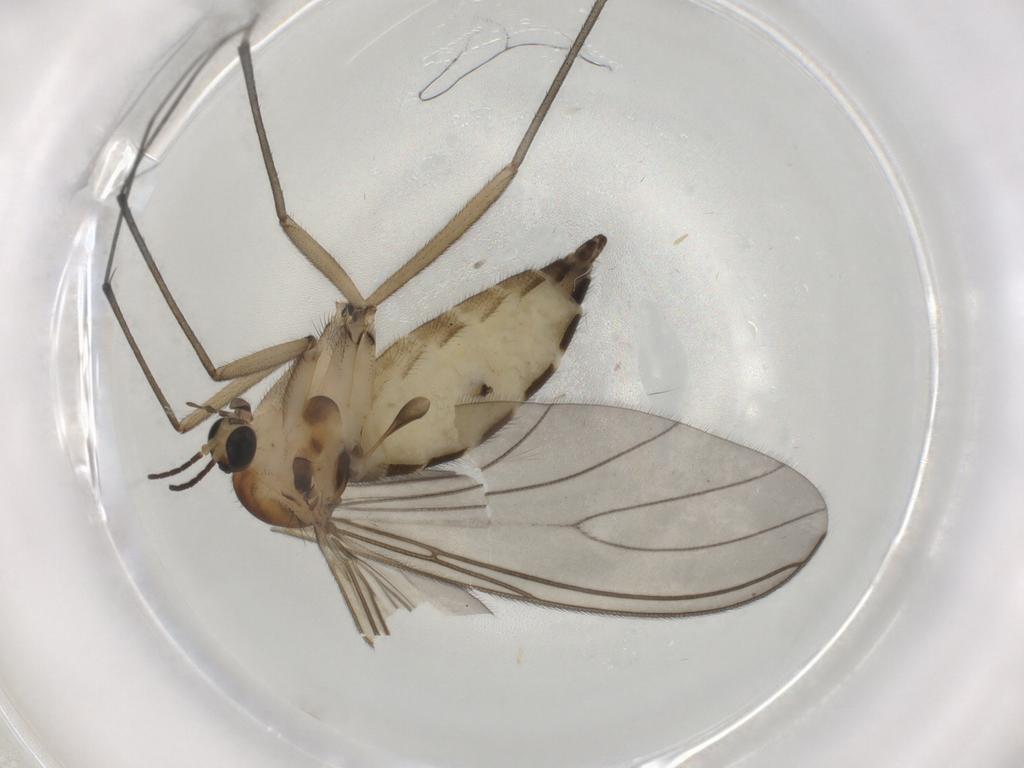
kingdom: Animalia
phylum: Arthropoda
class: Insecta
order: Diptera
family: Sciaridae
